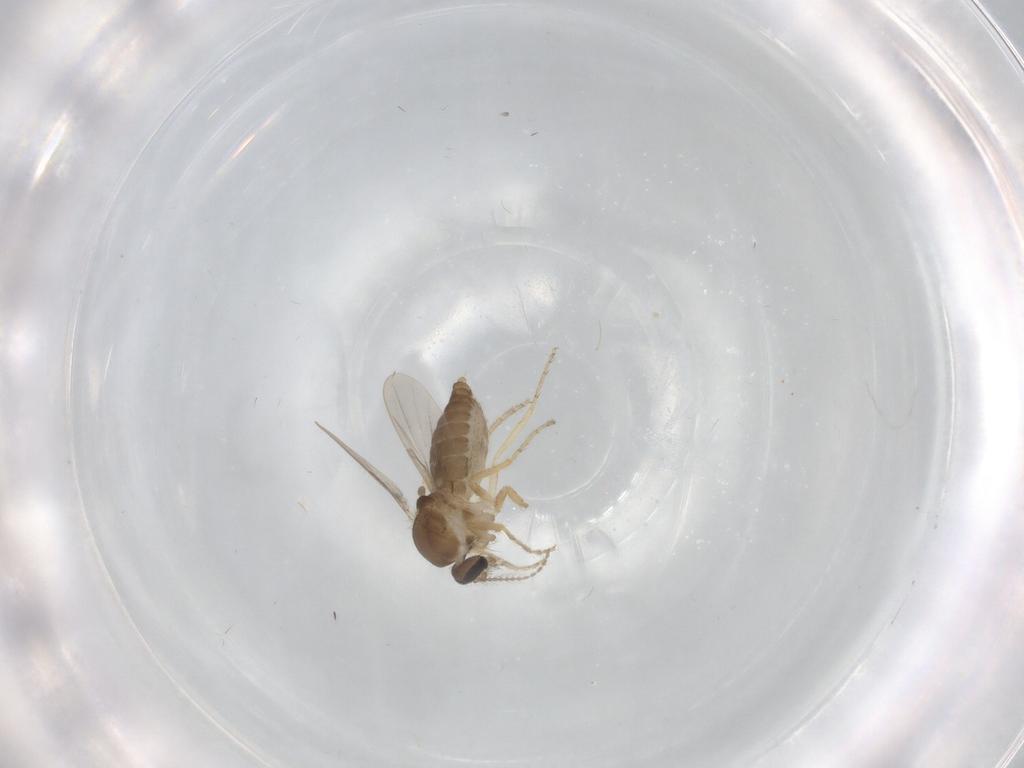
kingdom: Animalia
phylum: Arthropoda
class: Insecta
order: Diptera
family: Ceratopogonidae
